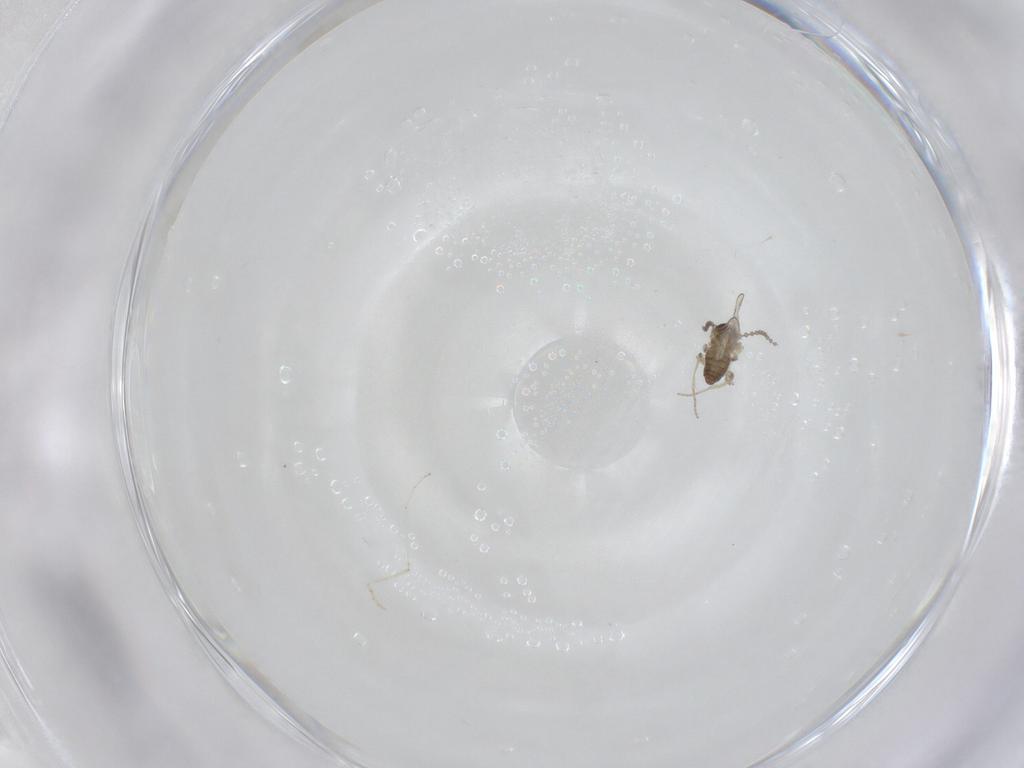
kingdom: Animalia
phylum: Arthropoda
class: Insecta
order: Diptera
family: Cecidomyiidae
